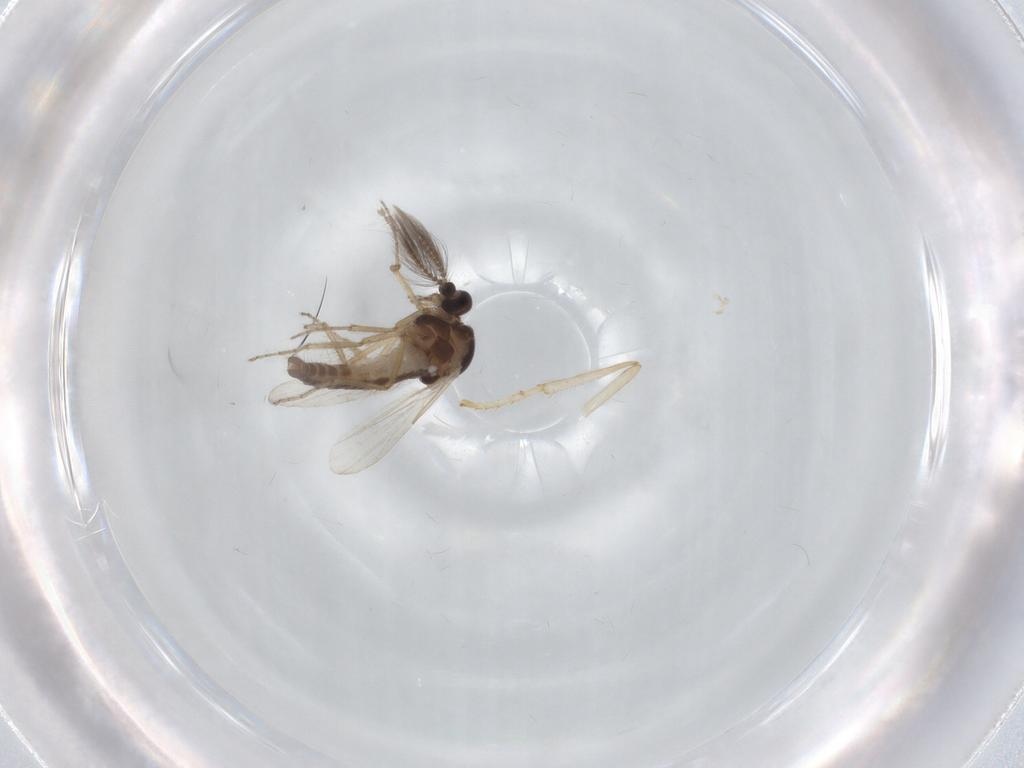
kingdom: Animalia
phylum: Arthropoda
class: Insecta
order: Diptera
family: Ceratopogonidae
